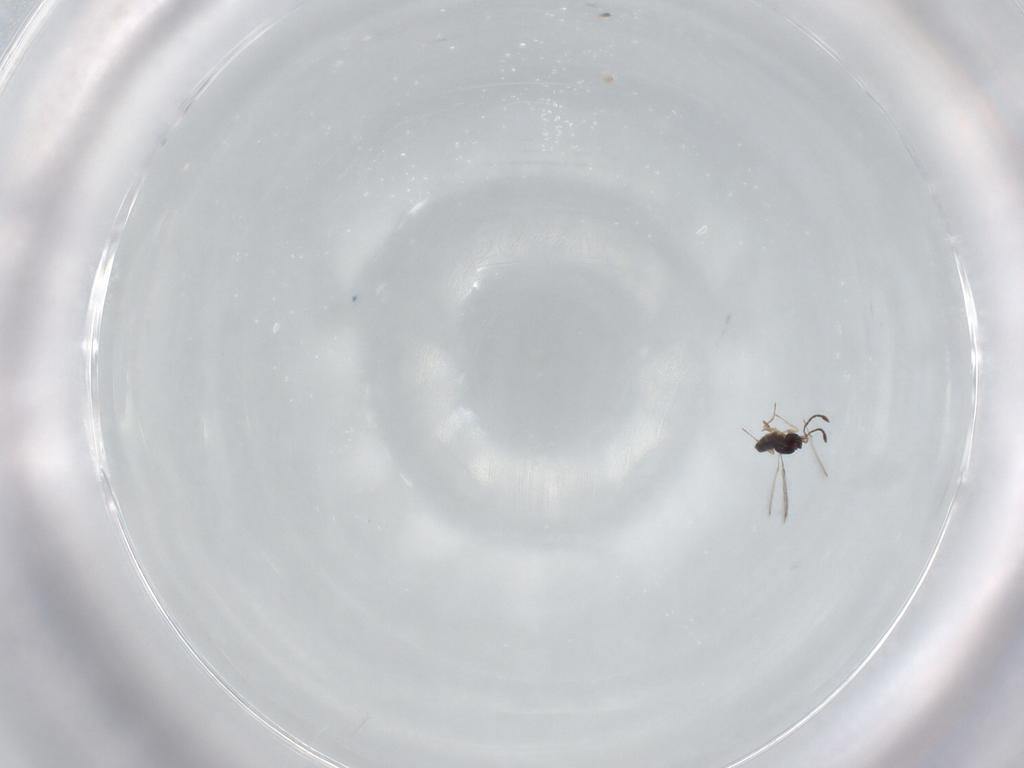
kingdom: Animalia
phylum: Arthropoda
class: Insecta
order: Hymenoptera
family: Mymaridae
